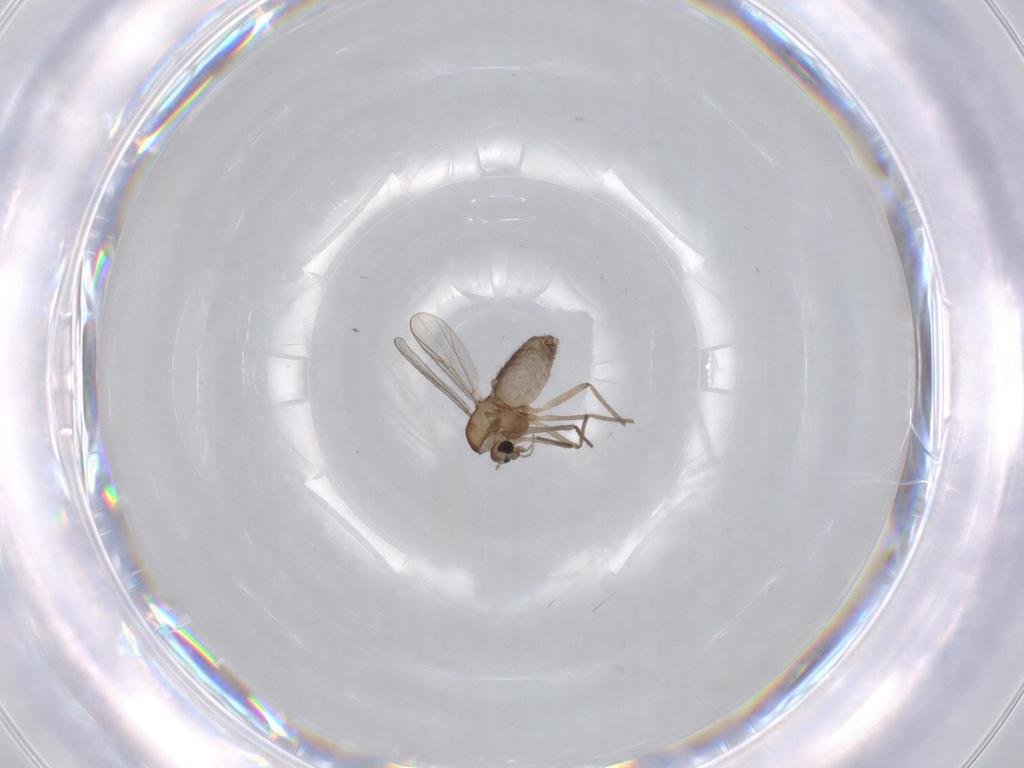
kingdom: Animalia
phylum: Arthropoda
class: Insecta
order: Diptera
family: Chironomidae
